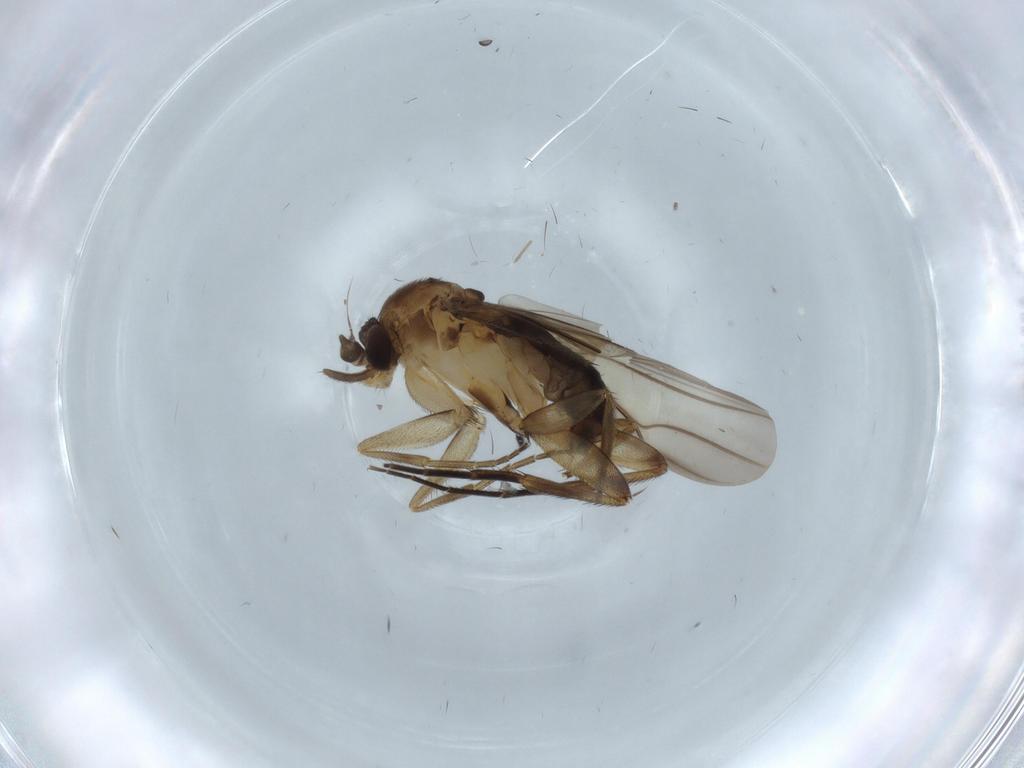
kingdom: Animalia
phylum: Arthropoda
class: Insecta
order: Diptera
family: Phoridae
